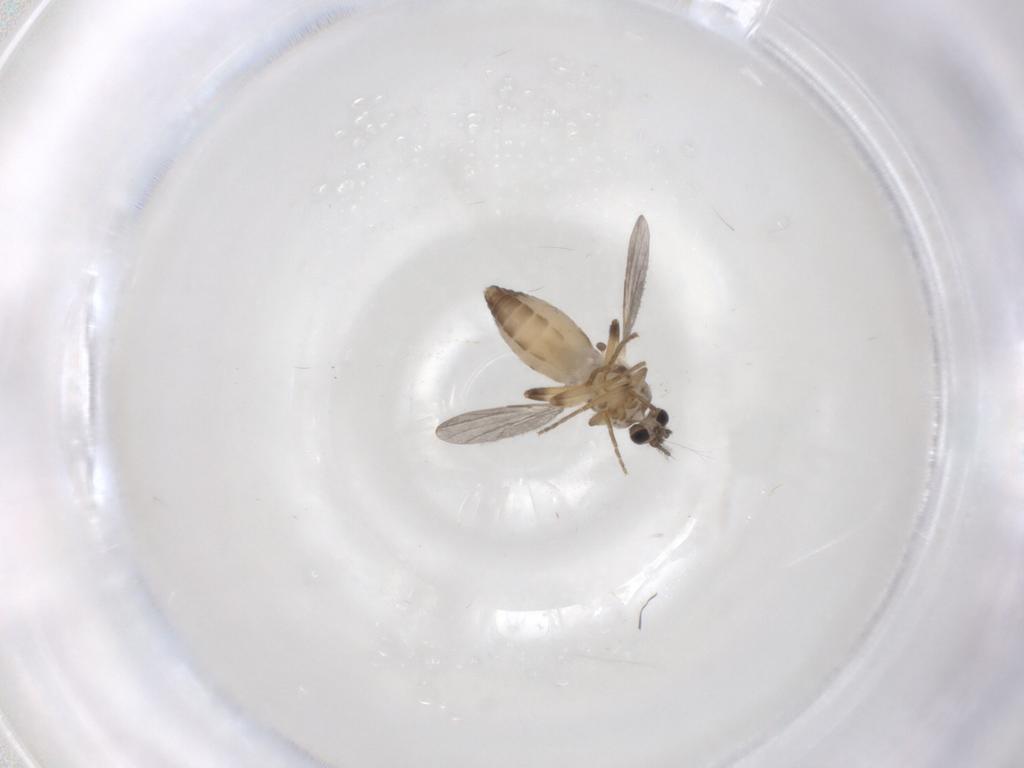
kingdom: Animalia
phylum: Arthropoda
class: Insecta
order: Diptera
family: Ceratopogonidae
